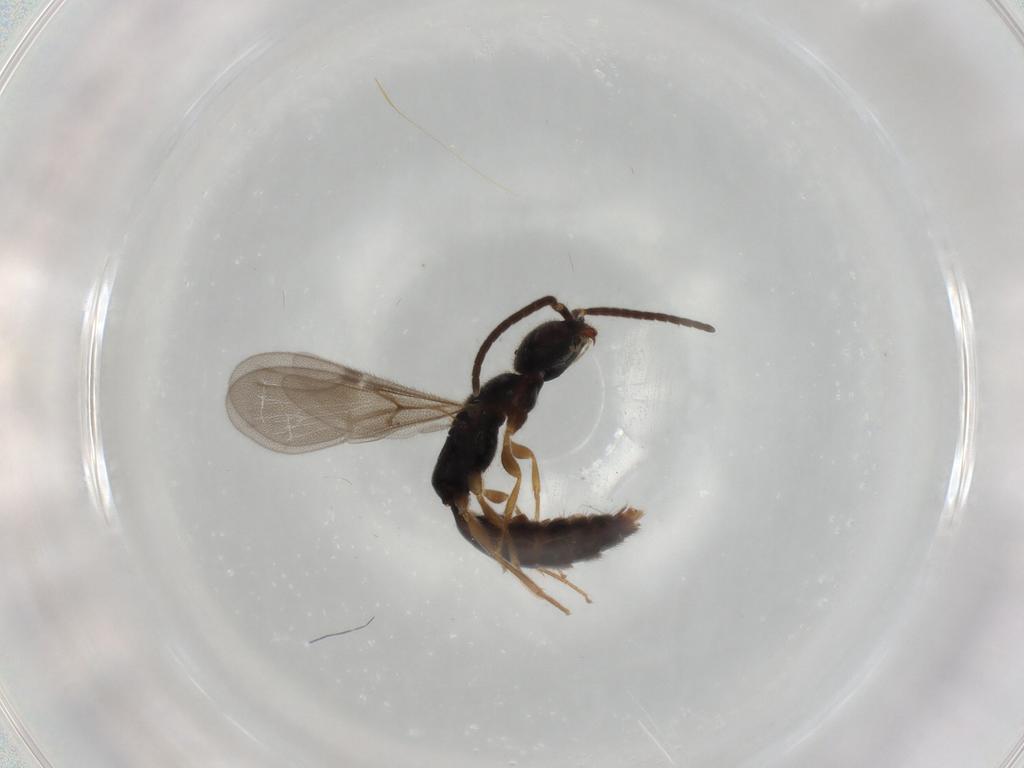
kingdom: Animalia
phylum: Arthropoda
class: Insecta
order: Hymenoptera
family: Bethylidae
